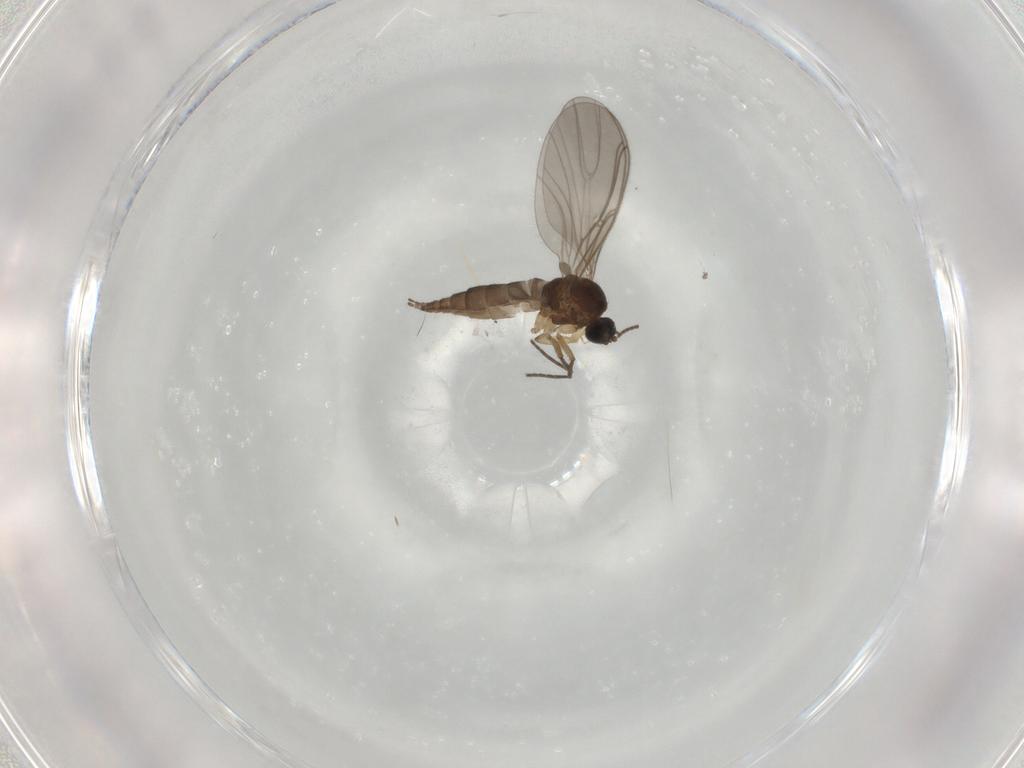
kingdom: Animalia
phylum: Arthropoda
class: Insecta
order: Diptera
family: Phoridae
